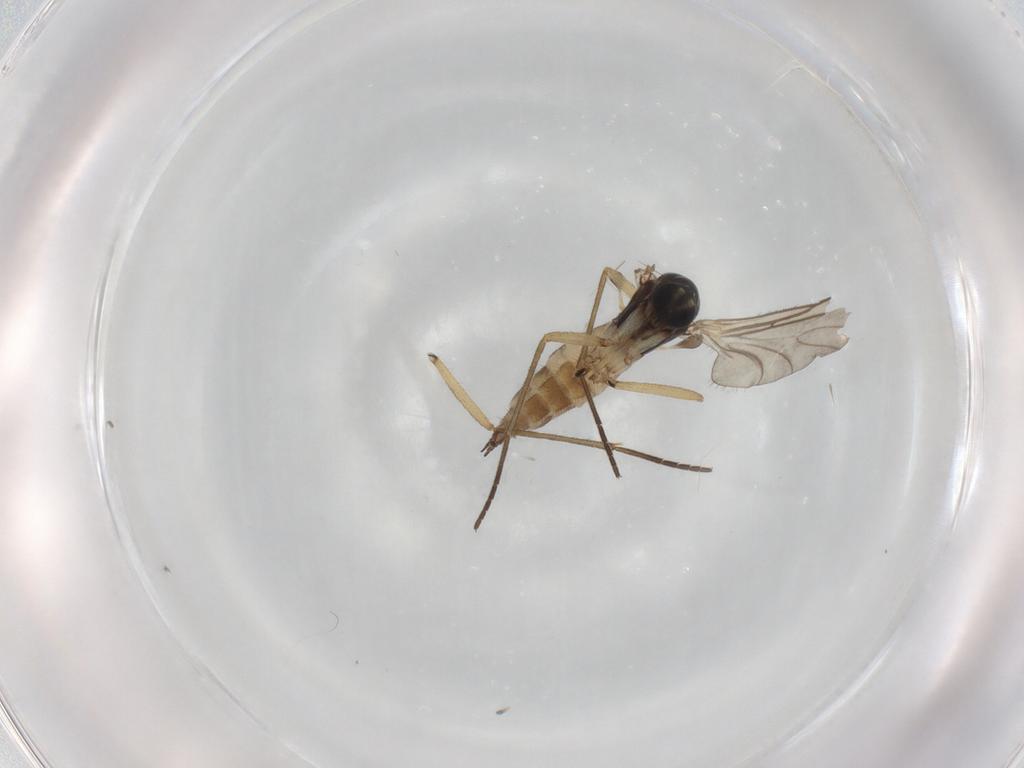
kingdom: Animalia
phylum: Arthropoda
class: Insecta
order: Diptera
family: Sciaridae
